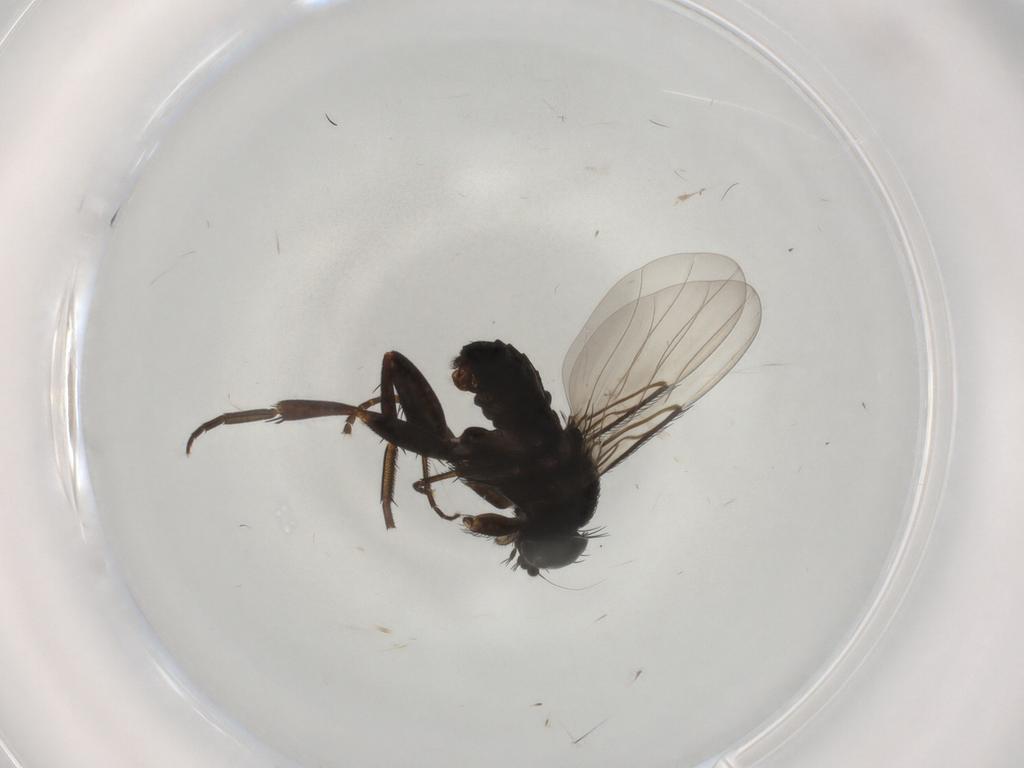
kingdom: Animalia
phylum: Arthropoda
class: Insecta
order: Diptera
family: Phoridae
